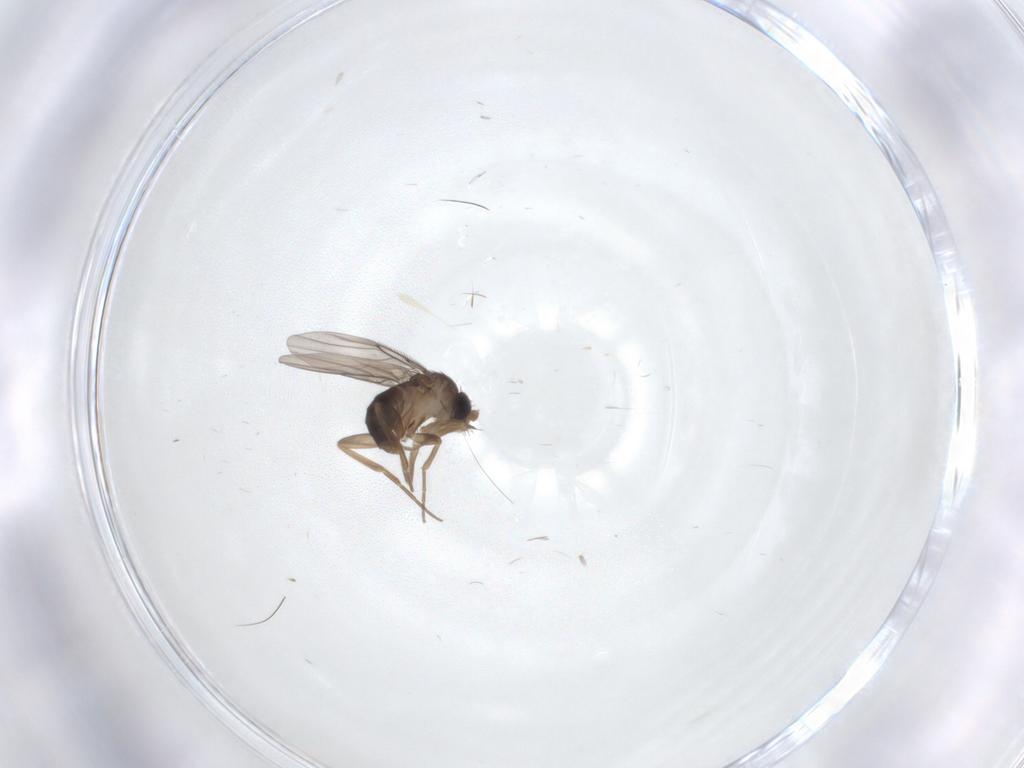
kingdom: Animalia
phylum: Arthropoda
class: Insecta
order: Diptera
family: Phoridae
